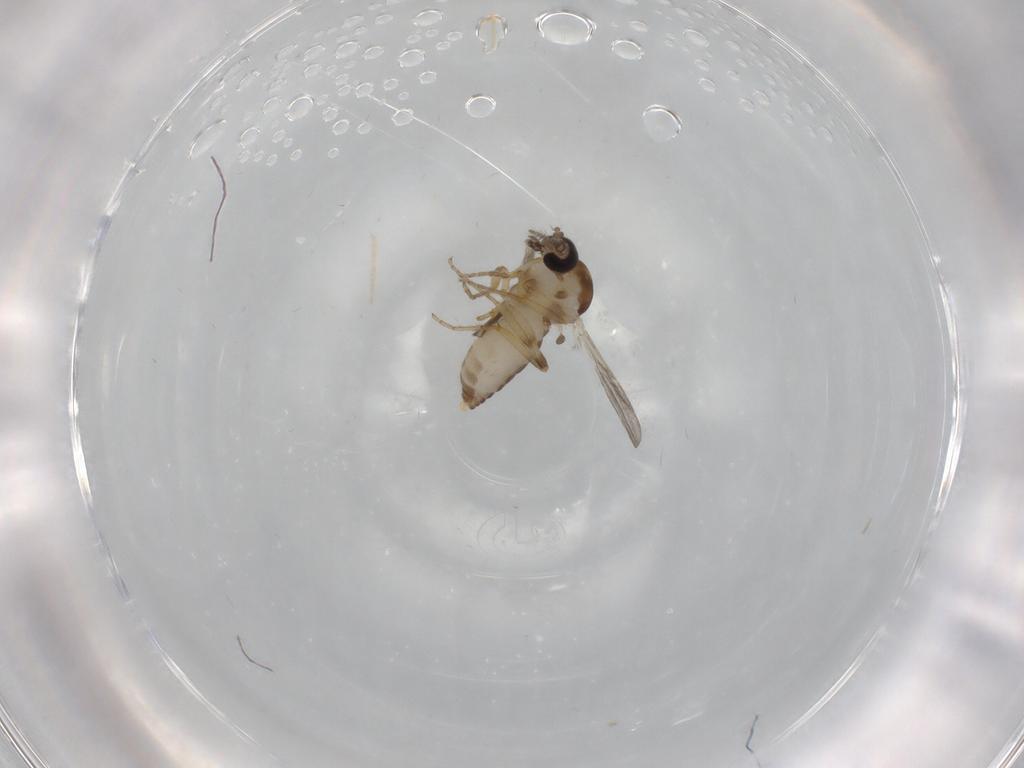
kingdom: Animalia
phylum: Arthropoda
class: Insecta
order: Diptera
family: Ceratopogonidae
